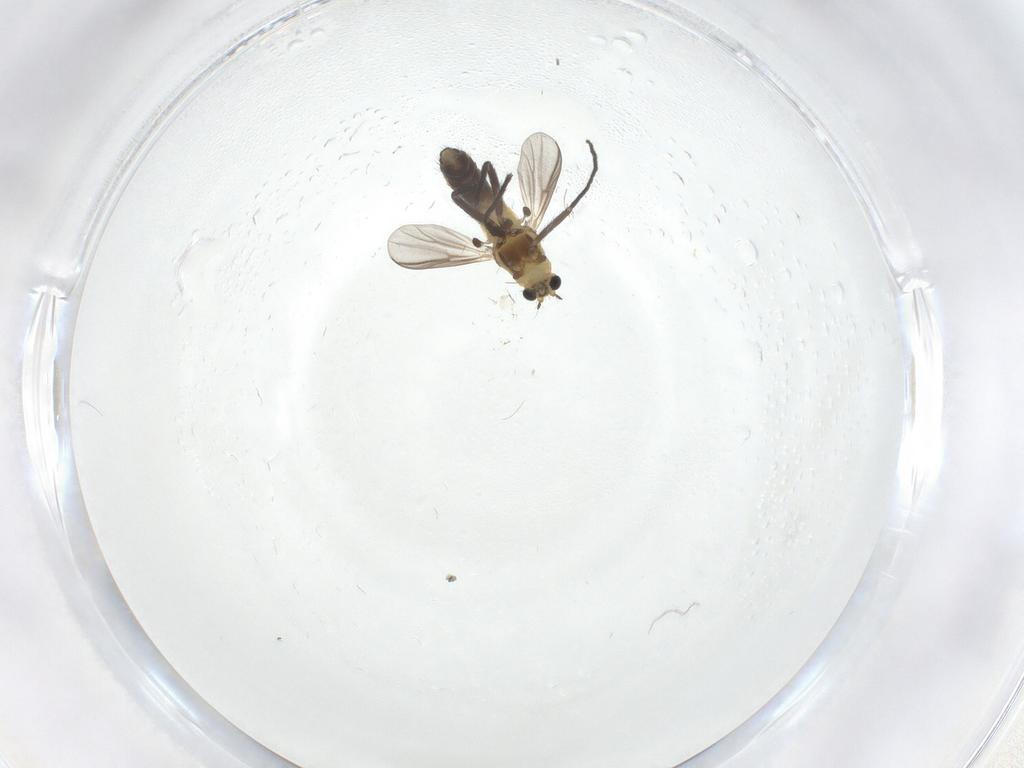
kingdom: Animalia
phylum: Arthropoda
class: Insecta
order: Diptera
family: Chironomidae
